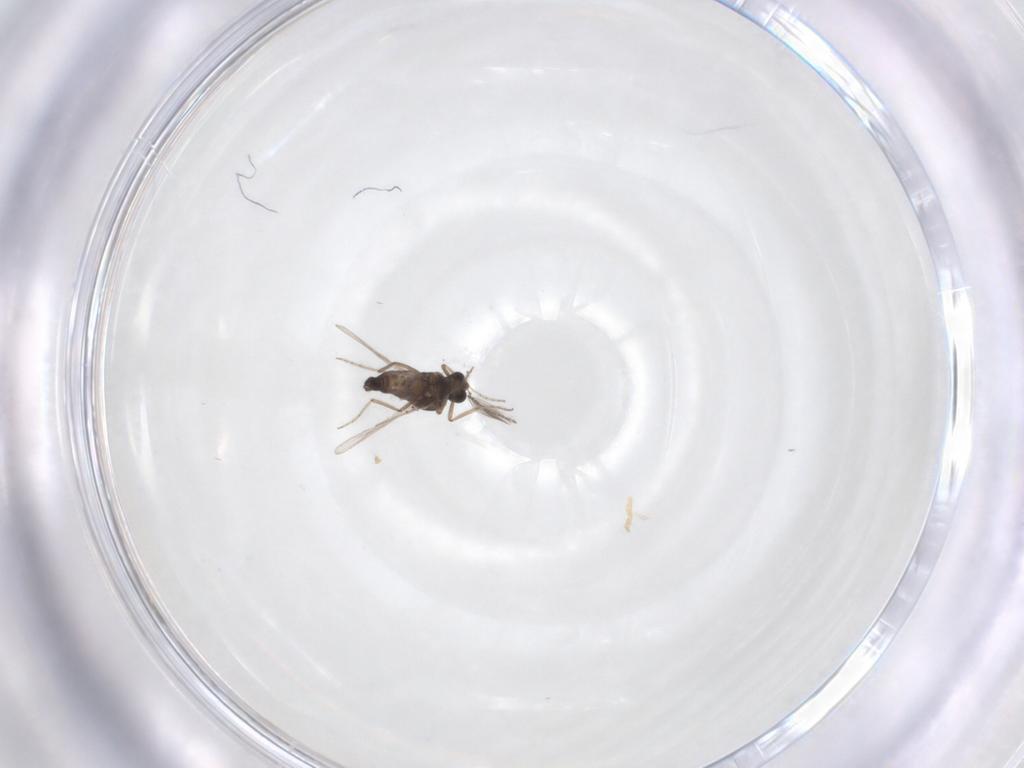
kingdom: Animalia
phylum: Arthropoda
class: Insecta
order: Diptera
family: Ceratopogonidae
